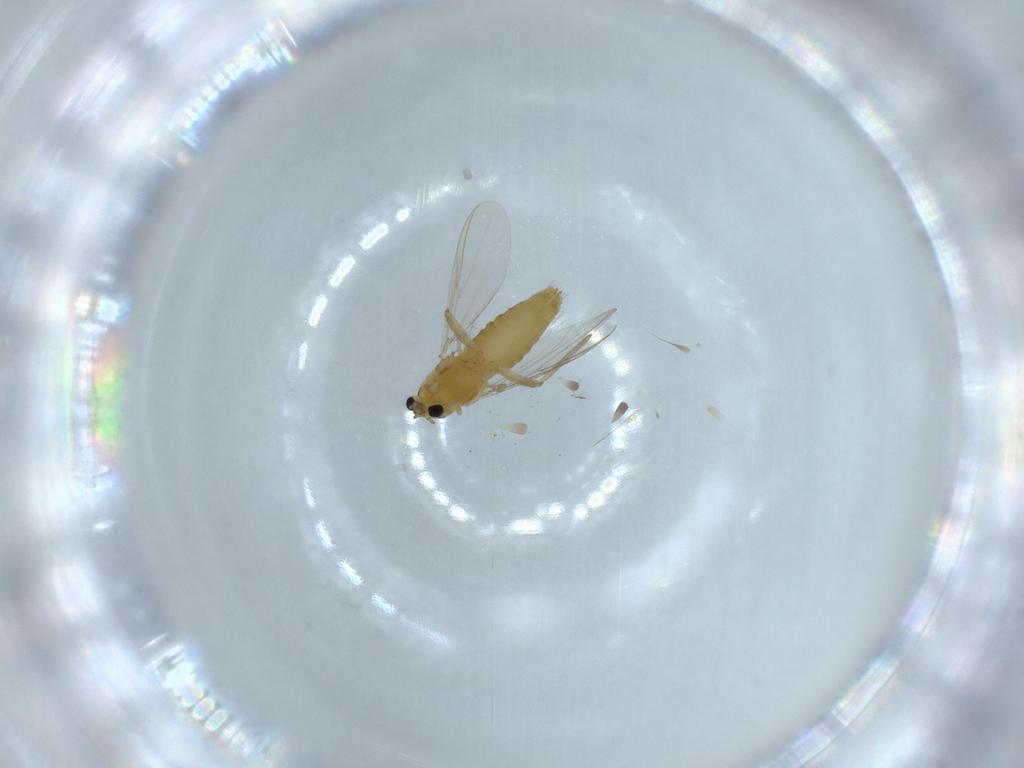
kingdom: Animalia
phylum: Arthropoda
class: Insecta
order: Diptera
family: Chironomidae
